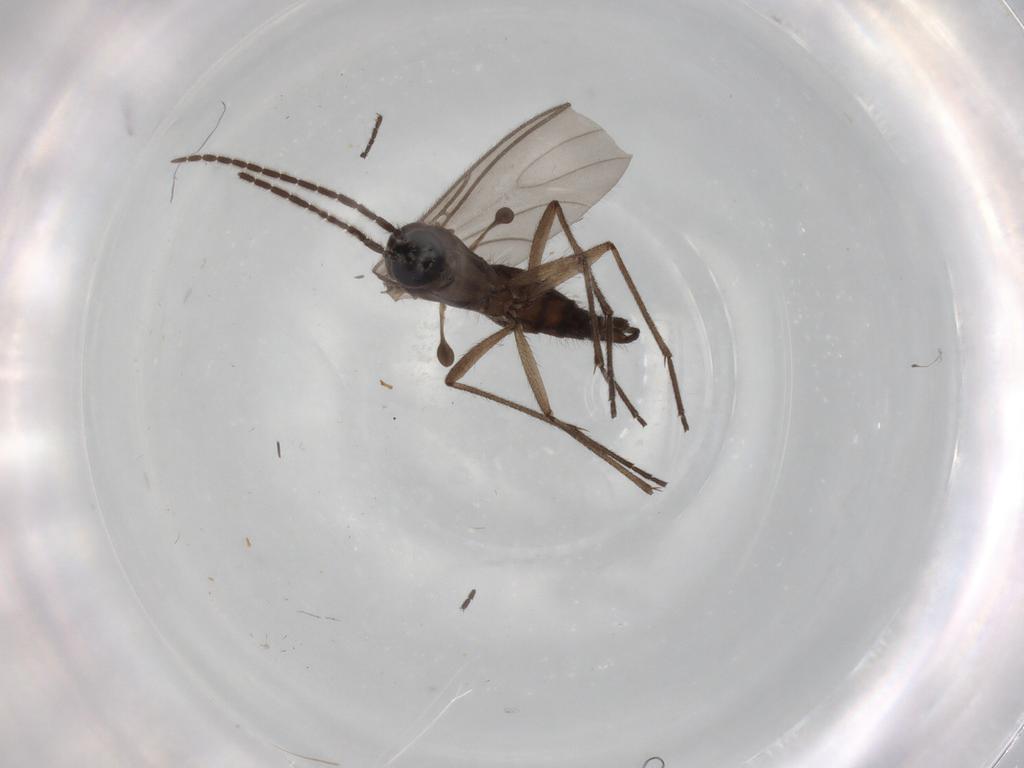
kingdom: Animalia
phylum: Arthropoda
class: Insecta
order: Diptera
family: Sciaridae
